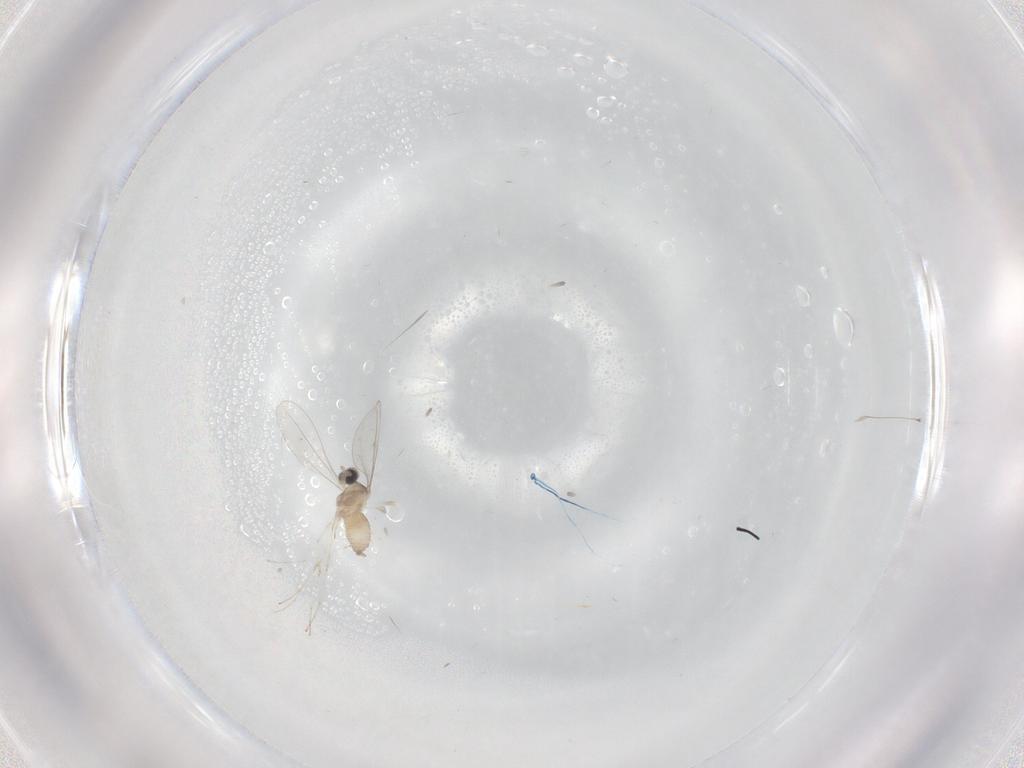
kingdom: Animalia
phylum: Arthropoda
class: Insecta
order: Diptera
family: Cecidomyiidae
